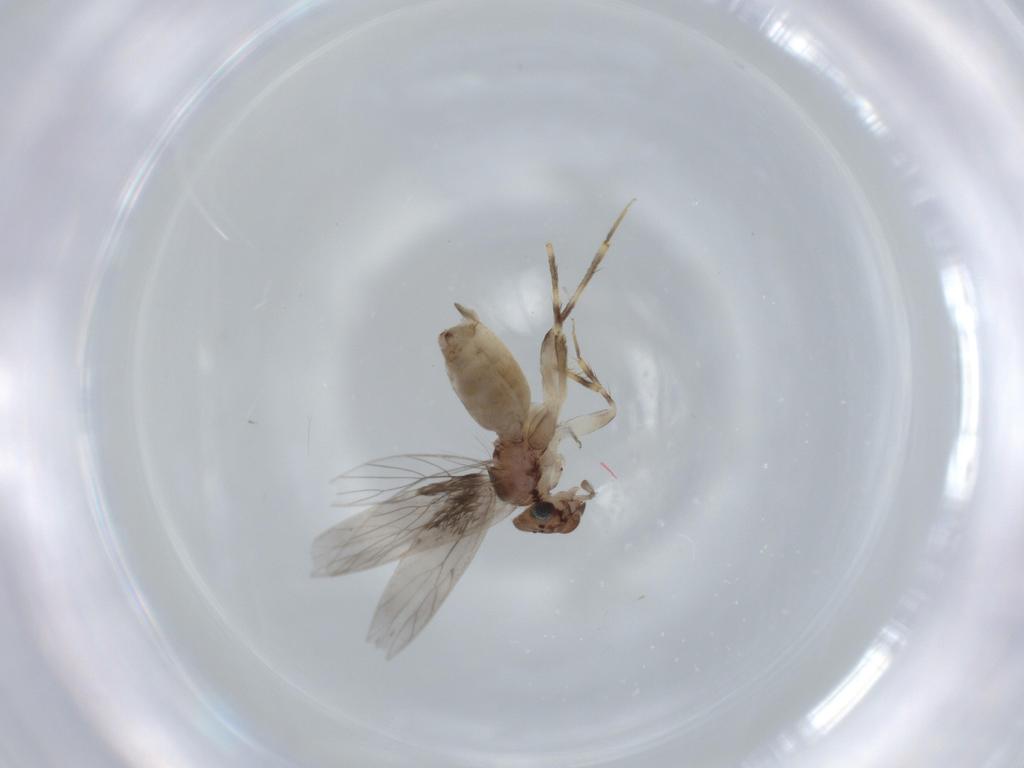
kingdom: Animalia
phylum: Arthropoda
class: Insecta
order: Psocodea
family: Lepidopsocidae
